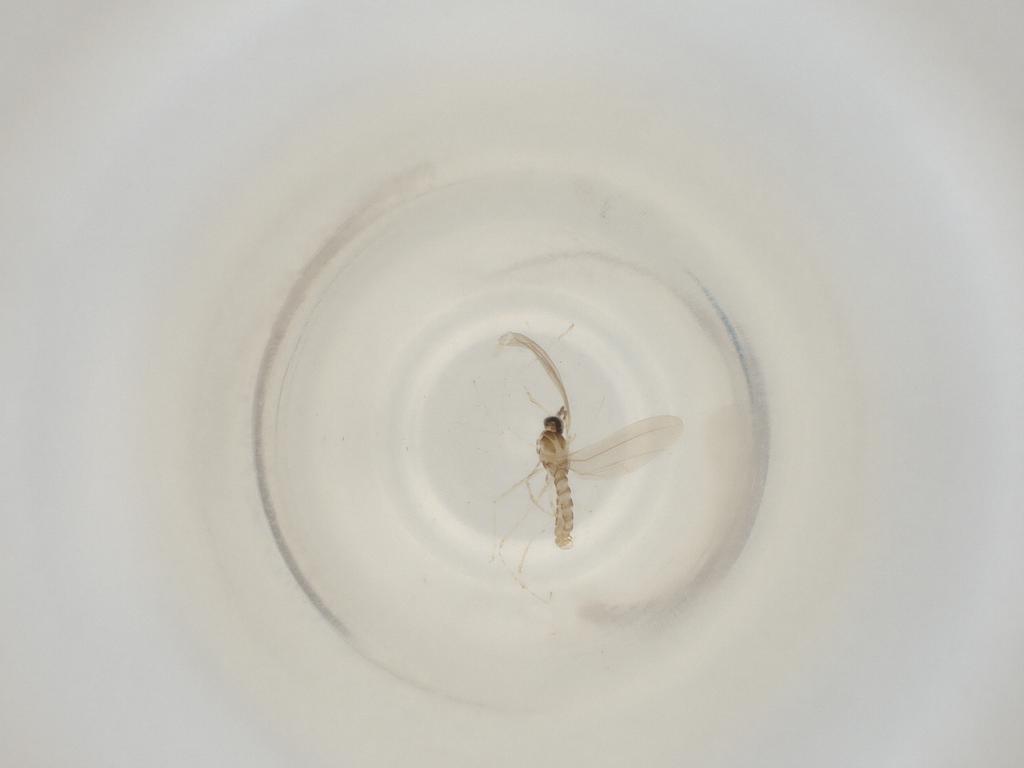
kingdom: Animalia
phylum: Arthropoda
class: Insecta
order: Diptera
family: Cecidomyiidae
